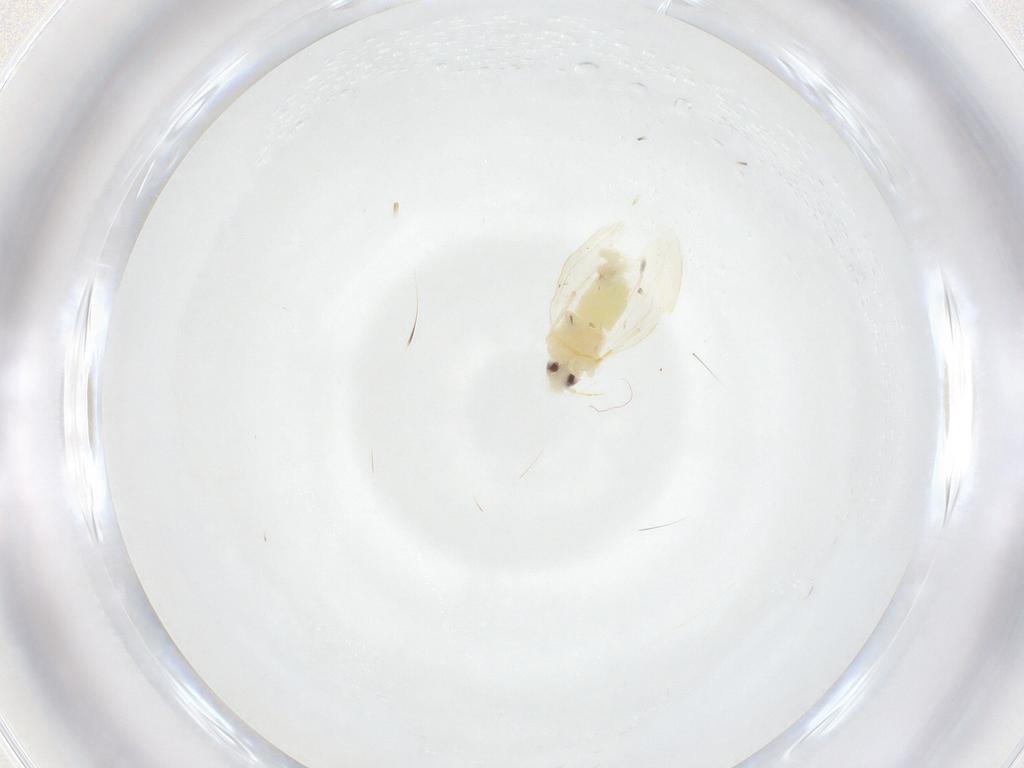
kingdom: Animalia
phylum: Arthropoda
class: Insecta
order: Hemiptera
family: Aleyrodidae
